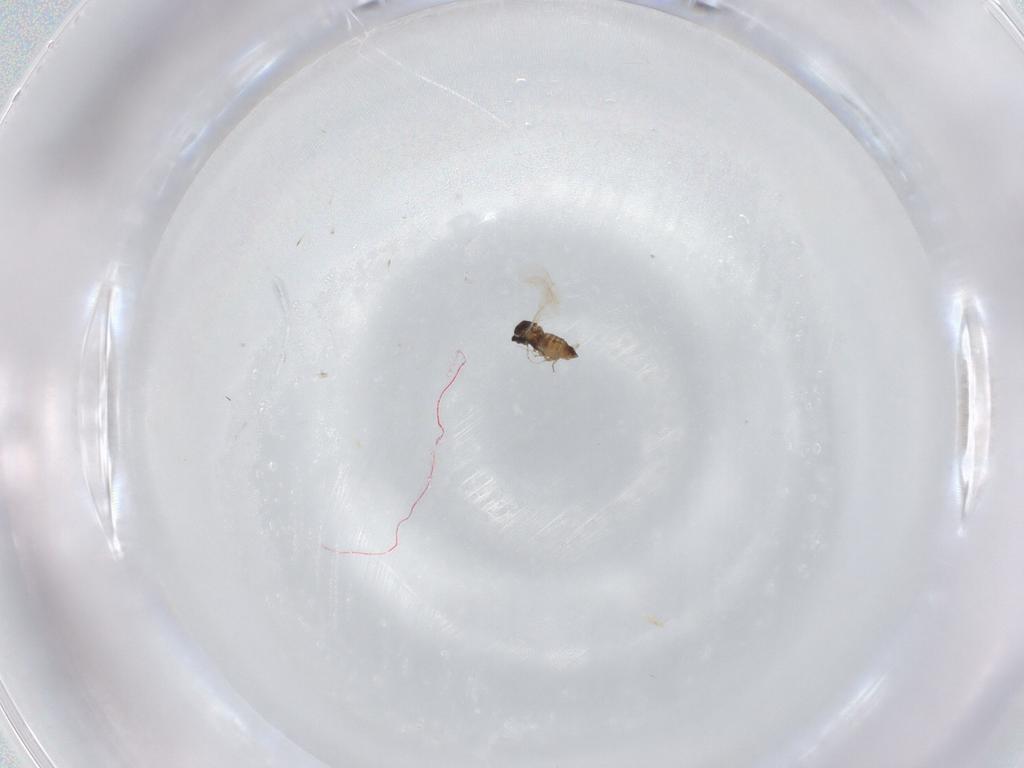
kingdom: Animalia
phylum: Arthropoda
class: Insecta
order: Diptera
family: Cecidomyiidae
